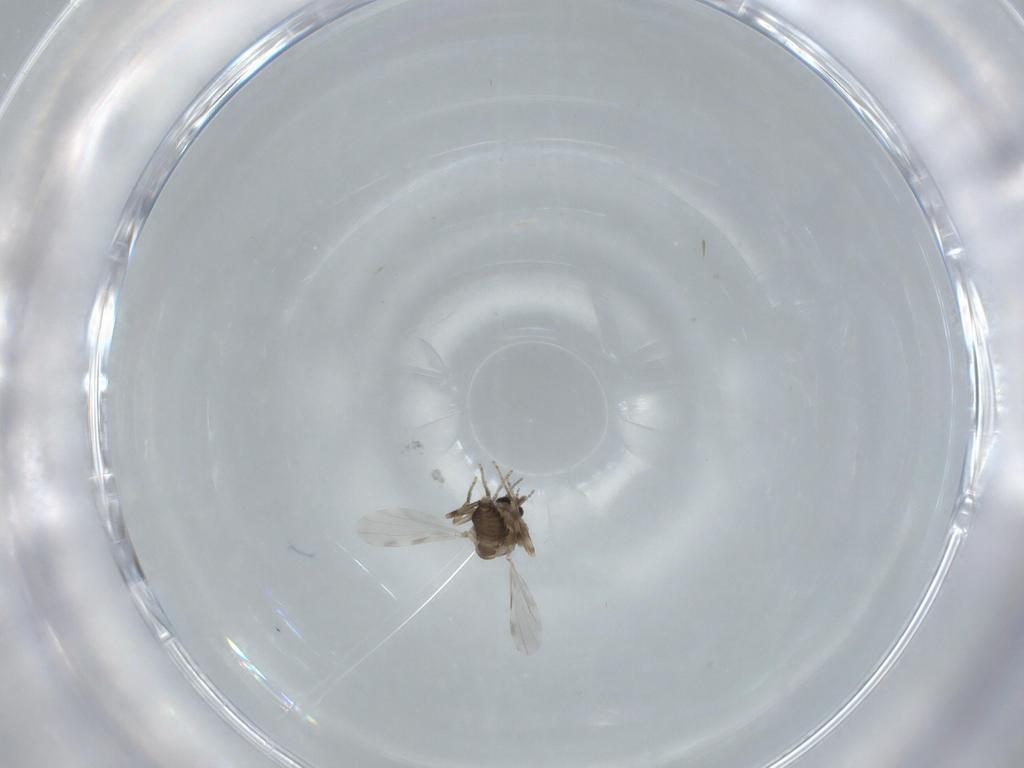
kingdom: Animalia
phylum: Arthropoda
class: Insecta
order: Diptera
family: Ceratopogonidae
